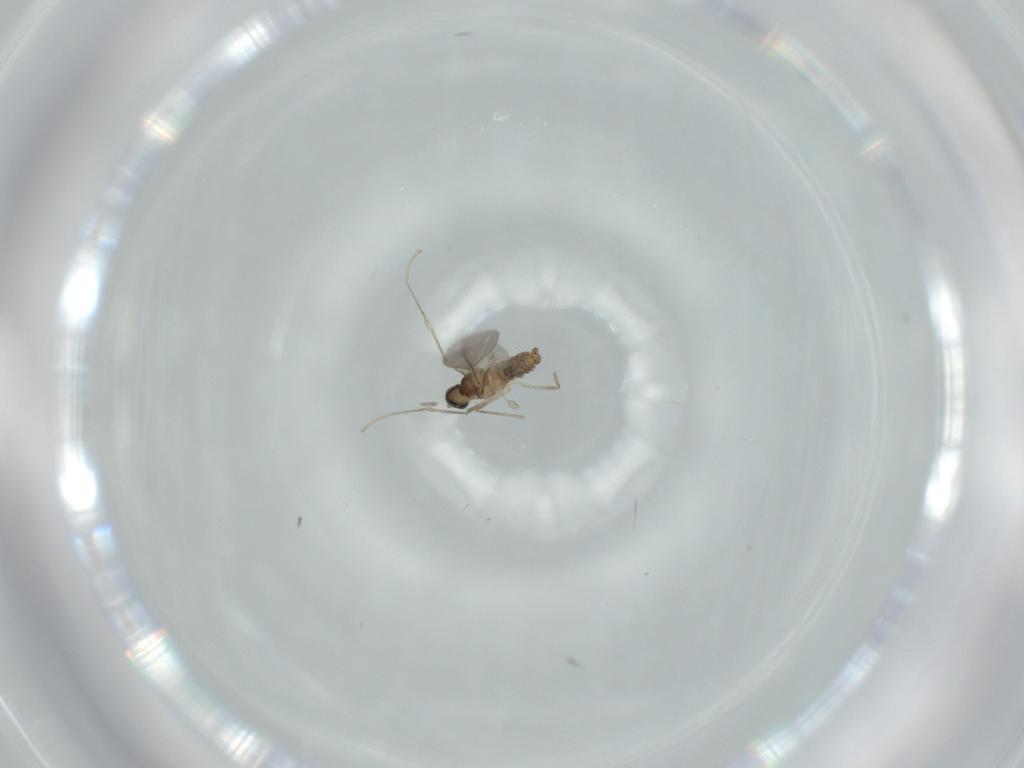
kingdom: Animalia
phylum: Arthropoda
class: Insecta
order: Diptera
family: Cecidomyiidae
